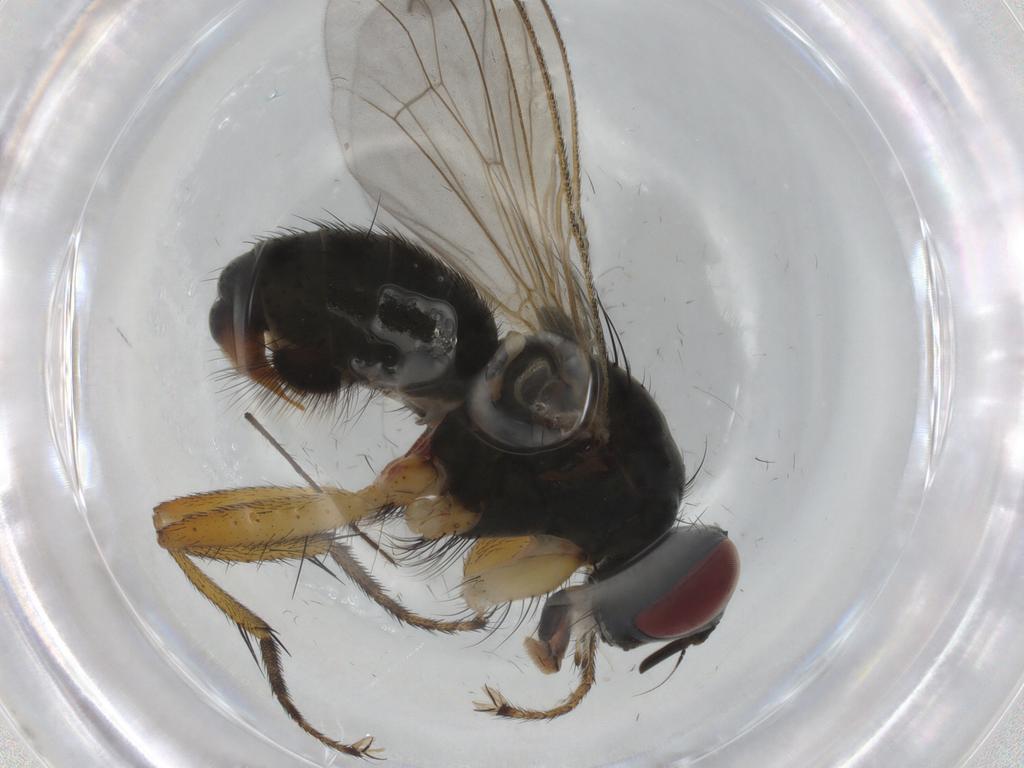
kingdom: Animalia
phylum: Arthropoda
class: Insecta
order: Diptera
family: Muscidae
